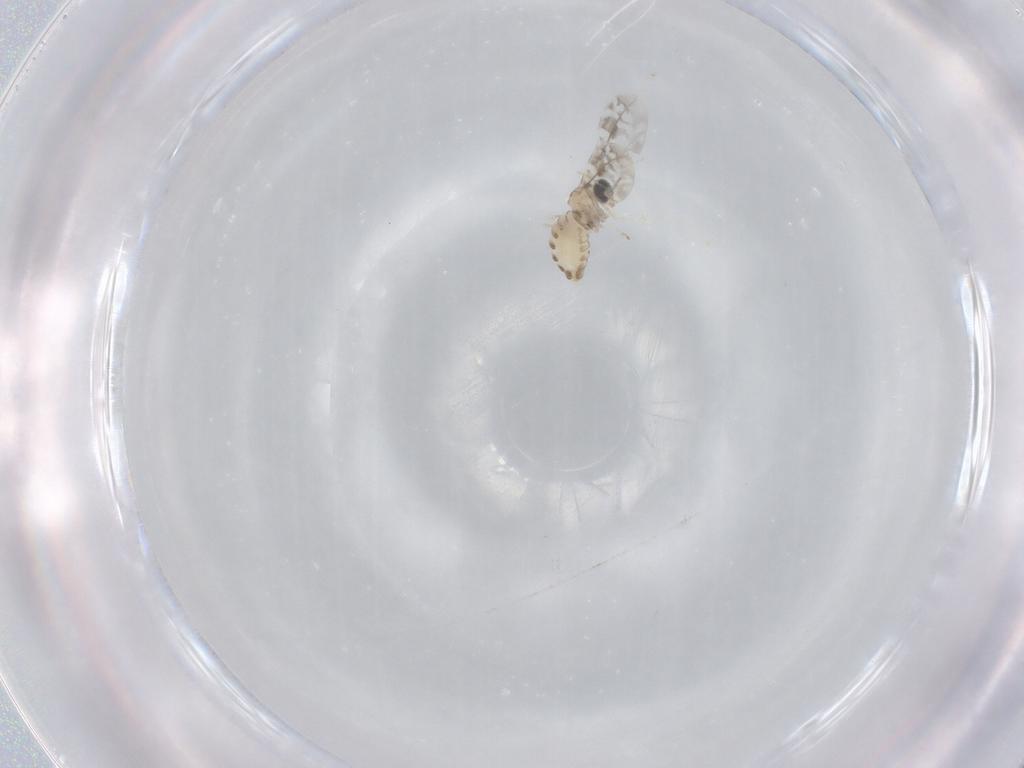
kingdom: Animalia
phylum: Arthropoda
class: Insecta
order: Diptera
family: Cecidomyiidae
